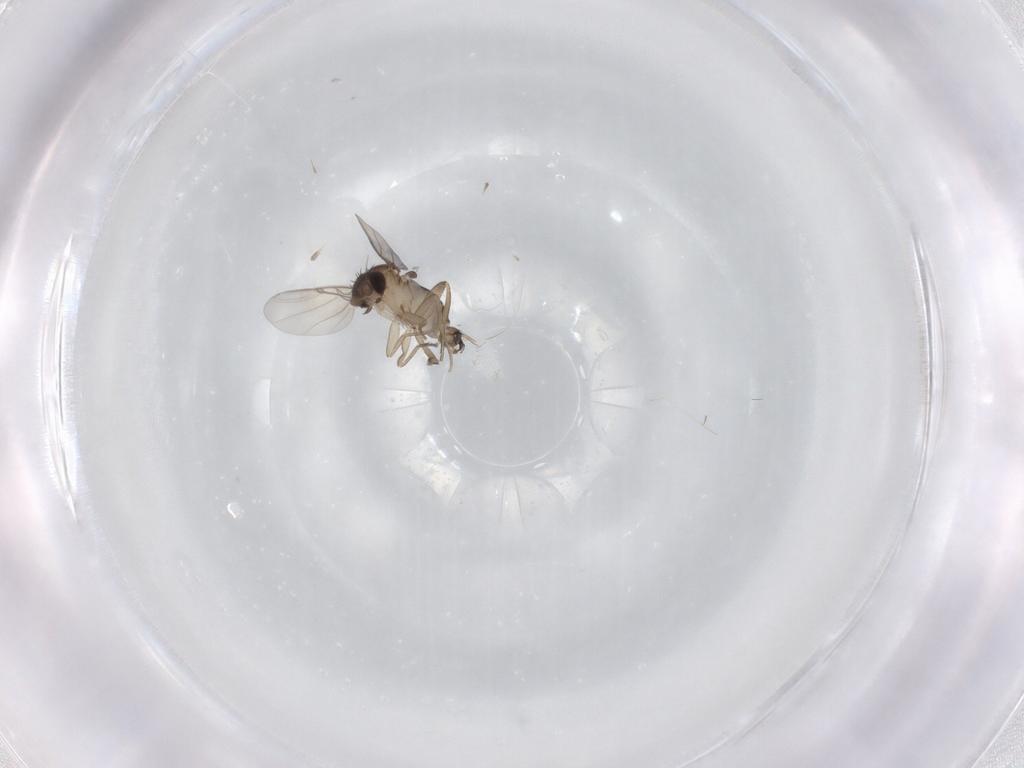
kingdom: Animalia
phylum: Arthropoda
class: Insecta
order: Diptera
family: Phoridae
